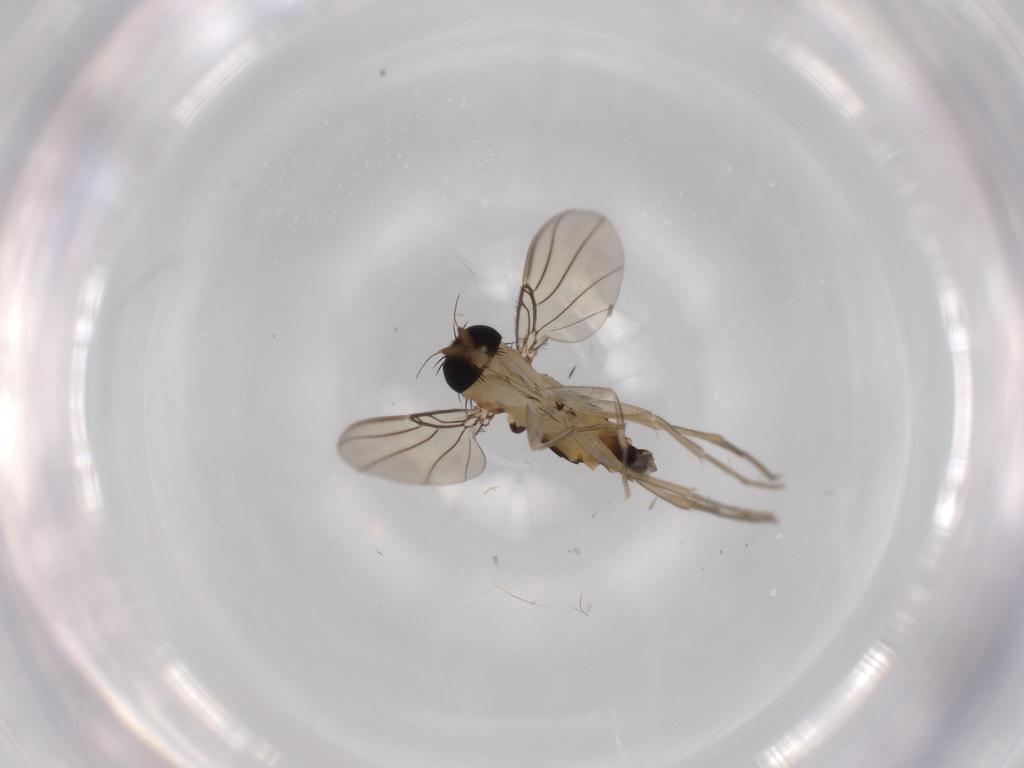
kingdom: Animalia
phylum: Arthropoda
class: Insecta
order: Diptera
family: Phoridae
